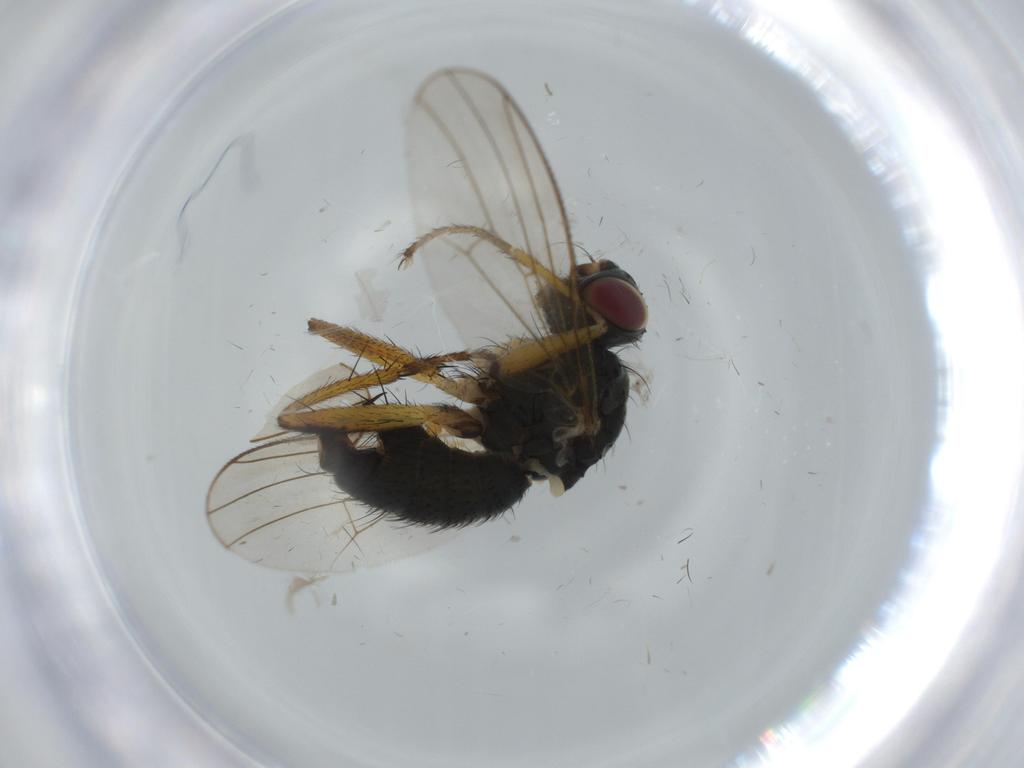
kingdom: Animalia
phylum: Arthropoda
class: Insecta
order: Diptera
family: Muscidae
